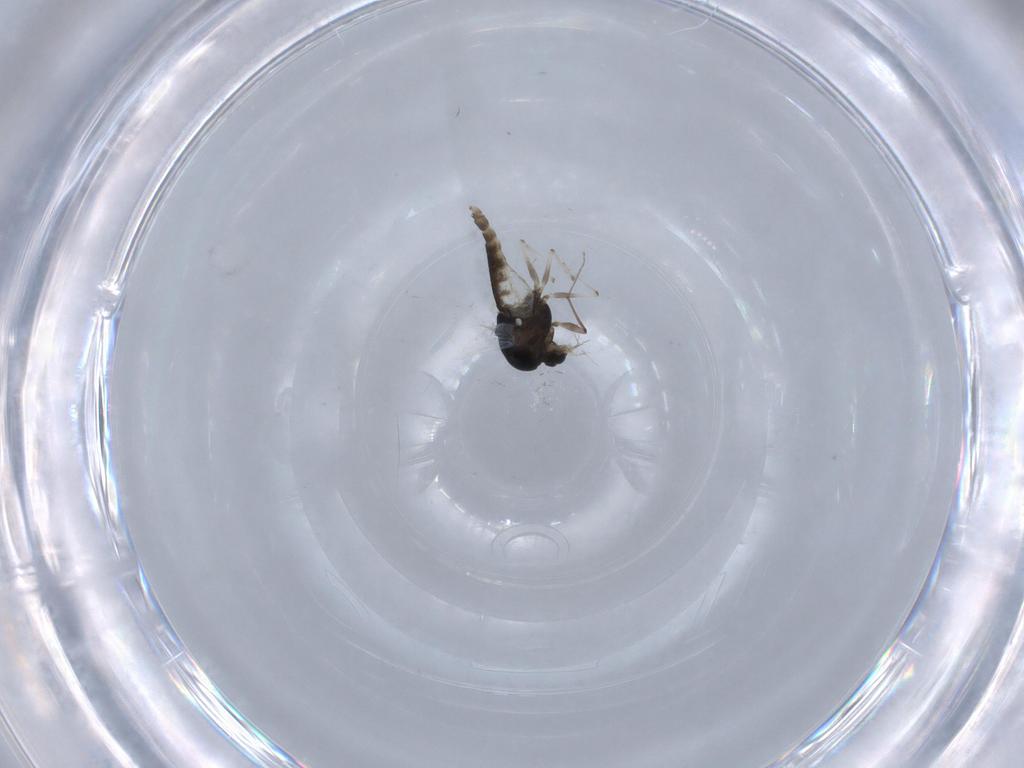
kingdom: Animalia
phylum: Arthropoda
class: Insecta
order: Diptera
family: Chironomidae
